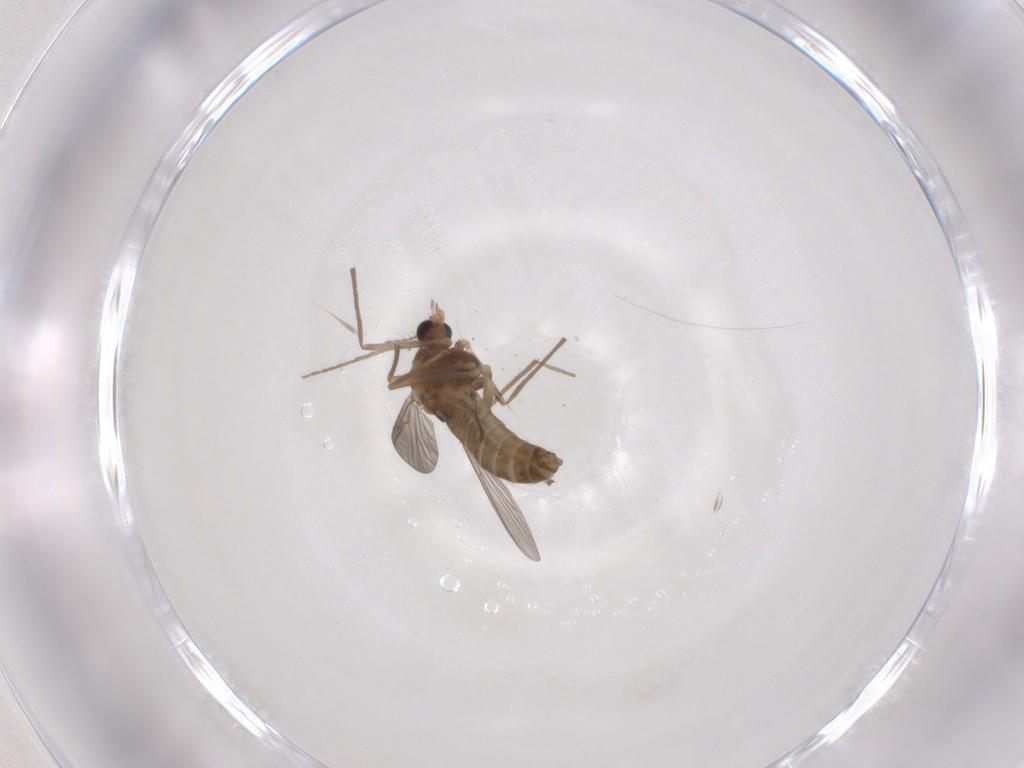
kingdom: Animalia
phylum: Arthropoda
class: Insecta
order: Diptera
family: Chironomidae
